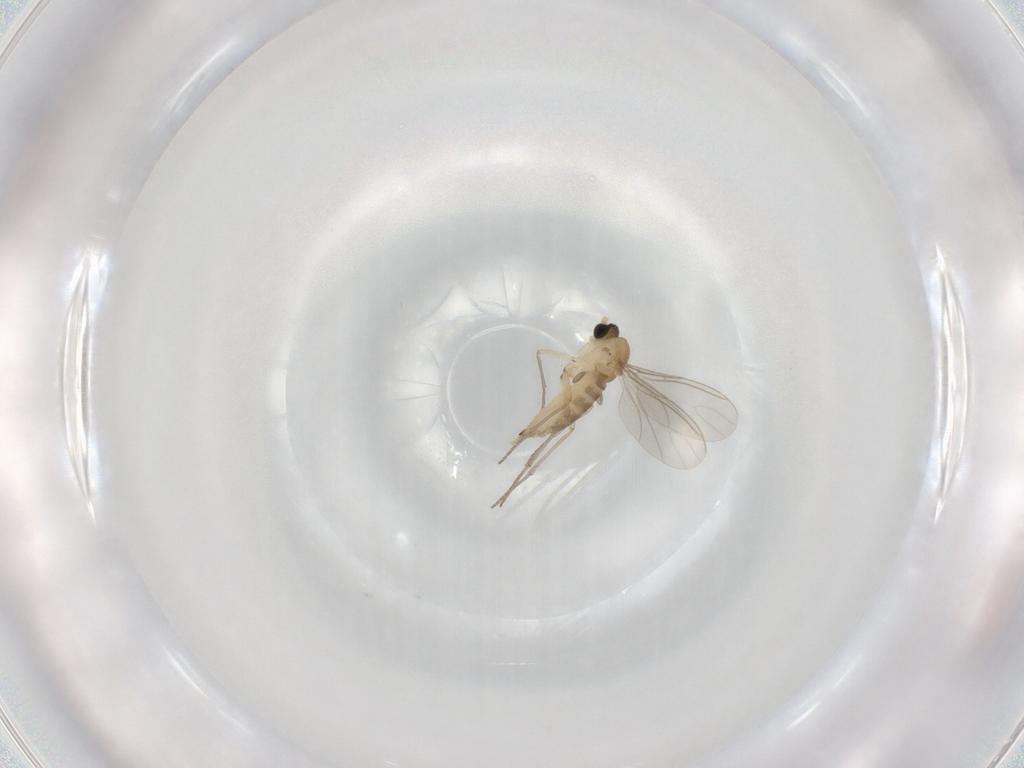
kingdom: Animalia
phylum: Arthropoda
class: Insecta
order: Diptera
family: Sciaridae
